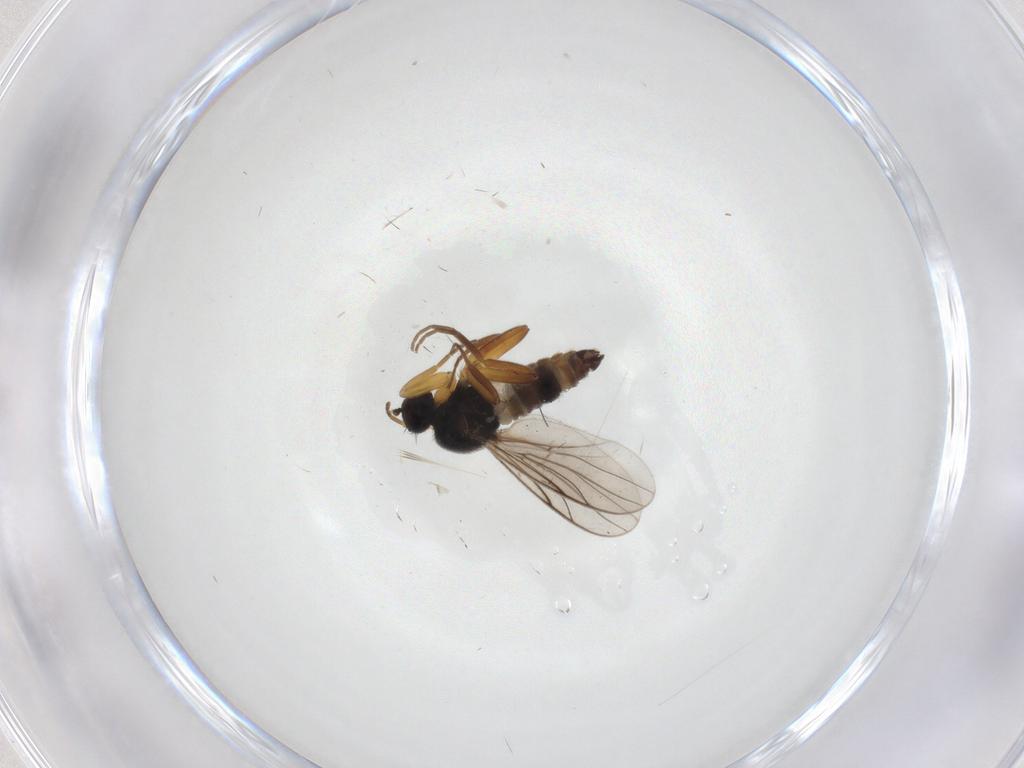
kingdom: Animalia
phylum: Arthropoda
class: Insecta
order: Diptera
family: Hybotidae
